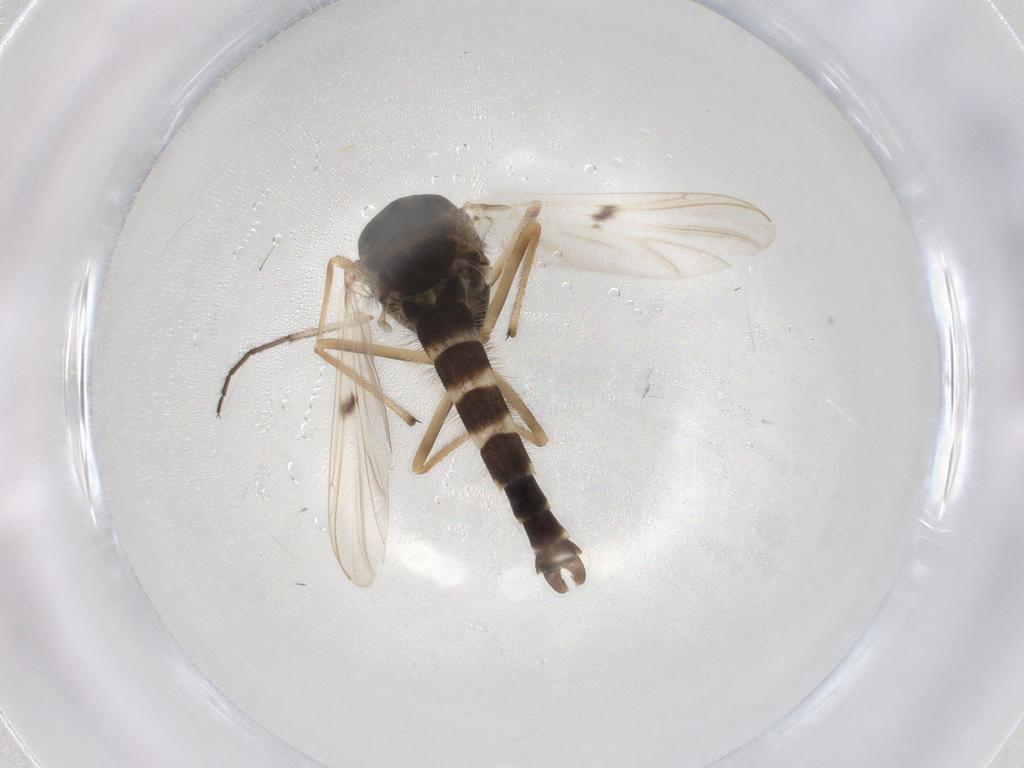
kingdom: Animalia
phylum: Arthropoda
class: Insecta
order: Diptera
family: Chironomidae
